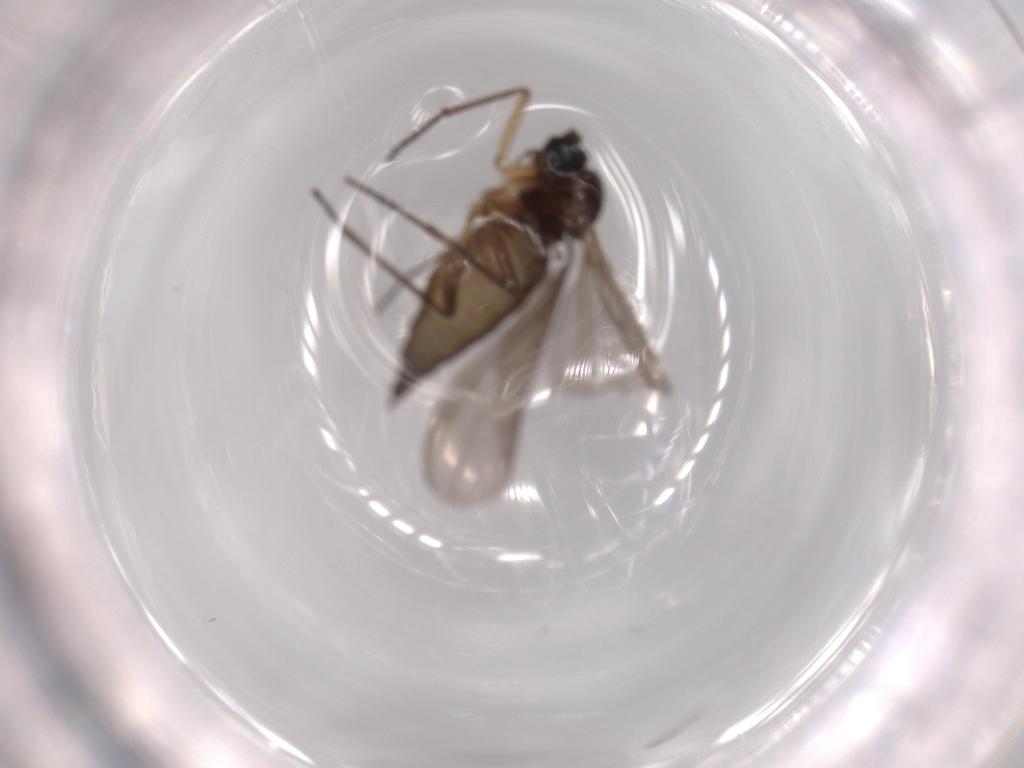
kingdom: Animalia
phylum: Arthropoda
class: Insecta
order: Diptera
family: Sciaridae
